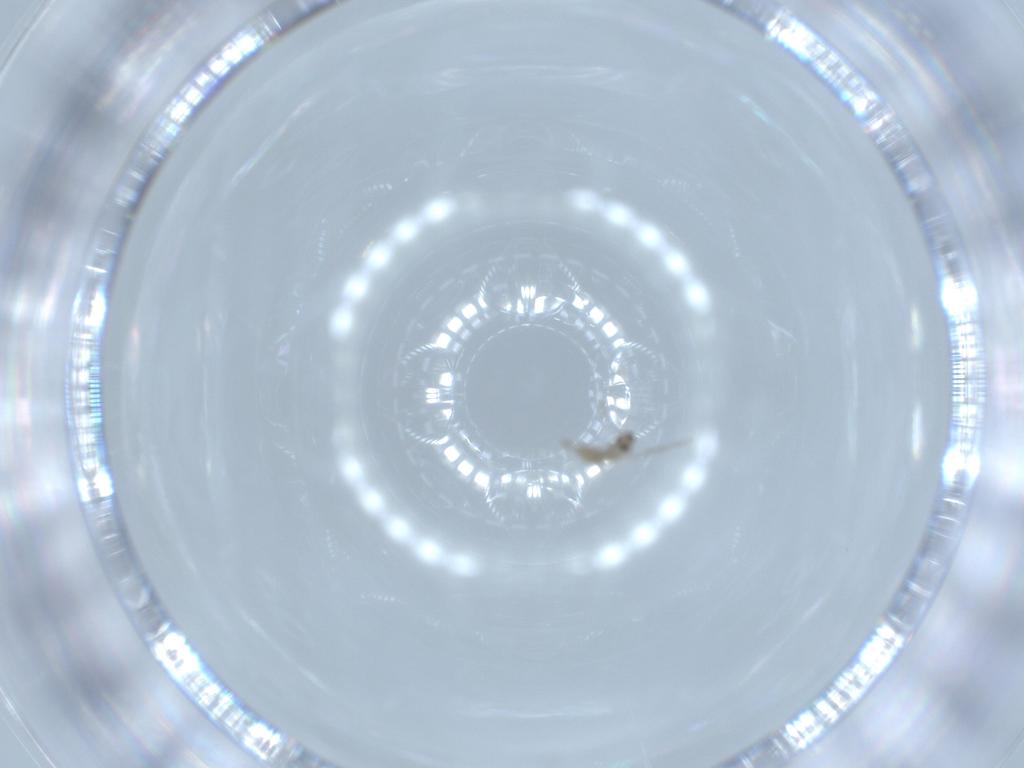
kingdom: Animalia
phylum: Arthropoda
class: Insecta
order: Diptera
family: Cecidomyiidae
